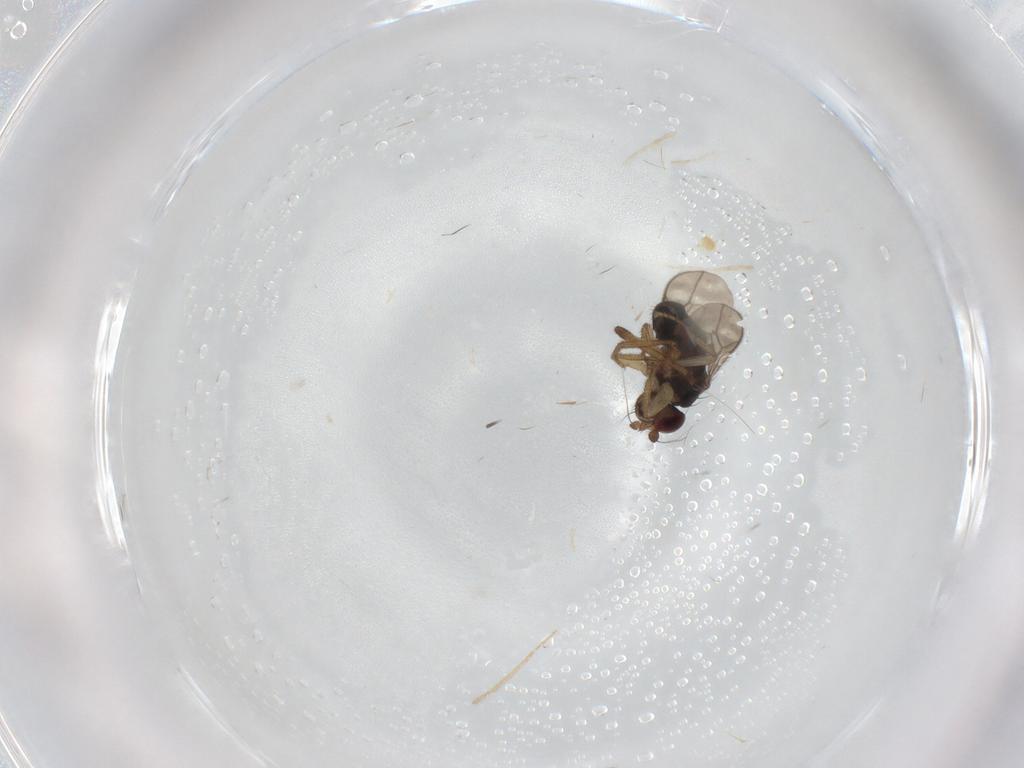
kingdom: Animalia
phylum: Arthropoda
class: Insecta
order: Diptera
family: Sphaeroceridae
